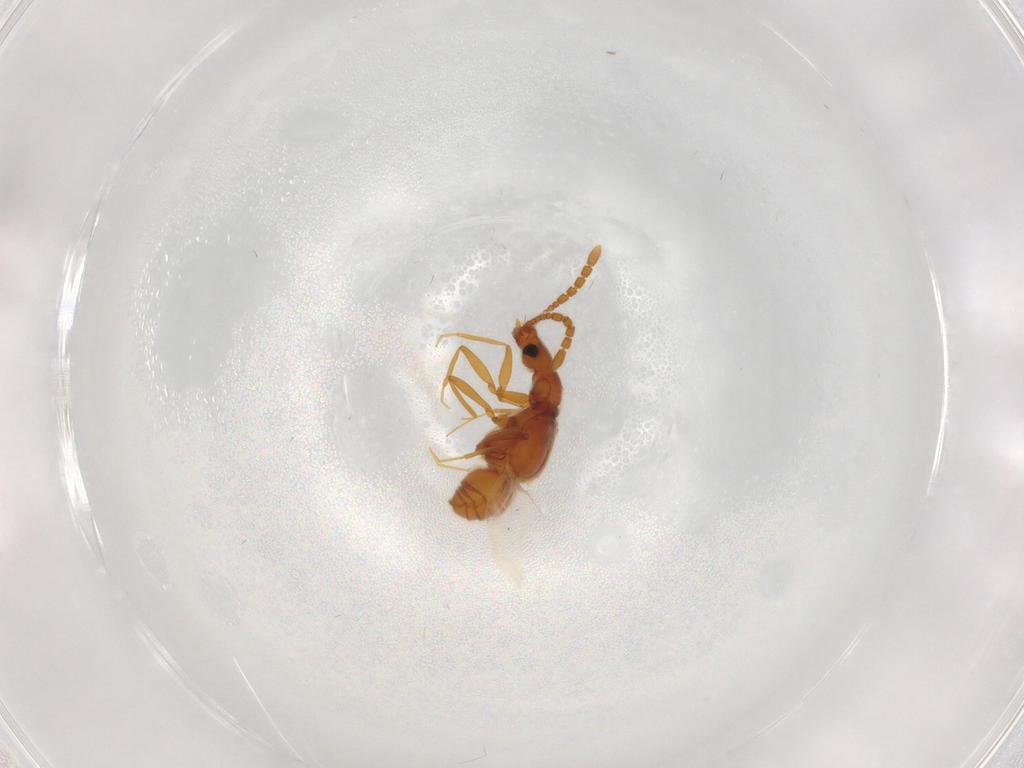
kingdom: Animalia
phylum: Arthropoda
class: Insecta
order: Coleoptera
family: Staphylinidae
